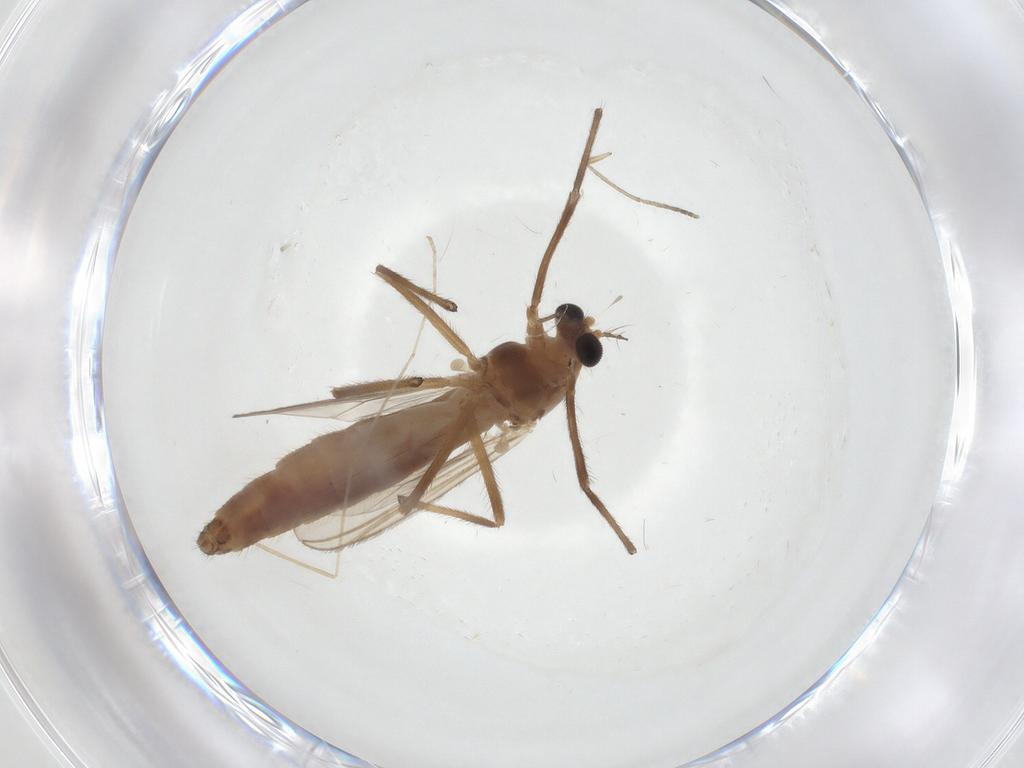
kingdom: Animalia
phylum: Arthropoda
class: Insecta
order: Diptera
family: Chironomidae
